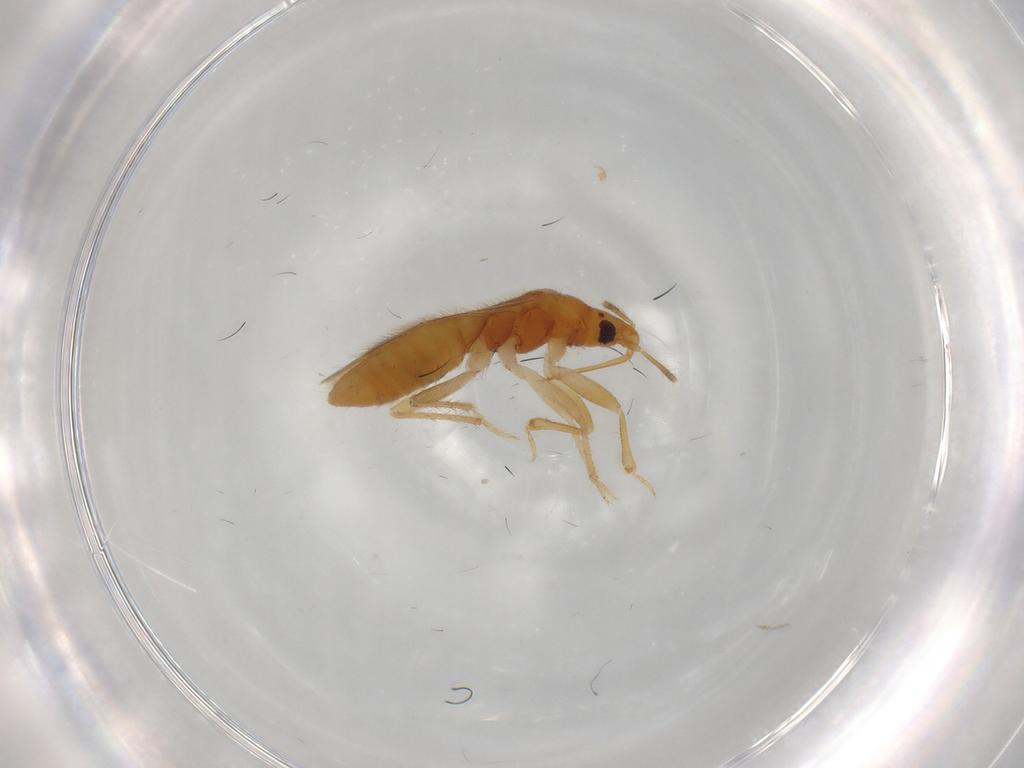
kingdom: Animalia
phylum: Arthropoda
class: Insecta
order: Hemiptera
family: Lasiochilidae
